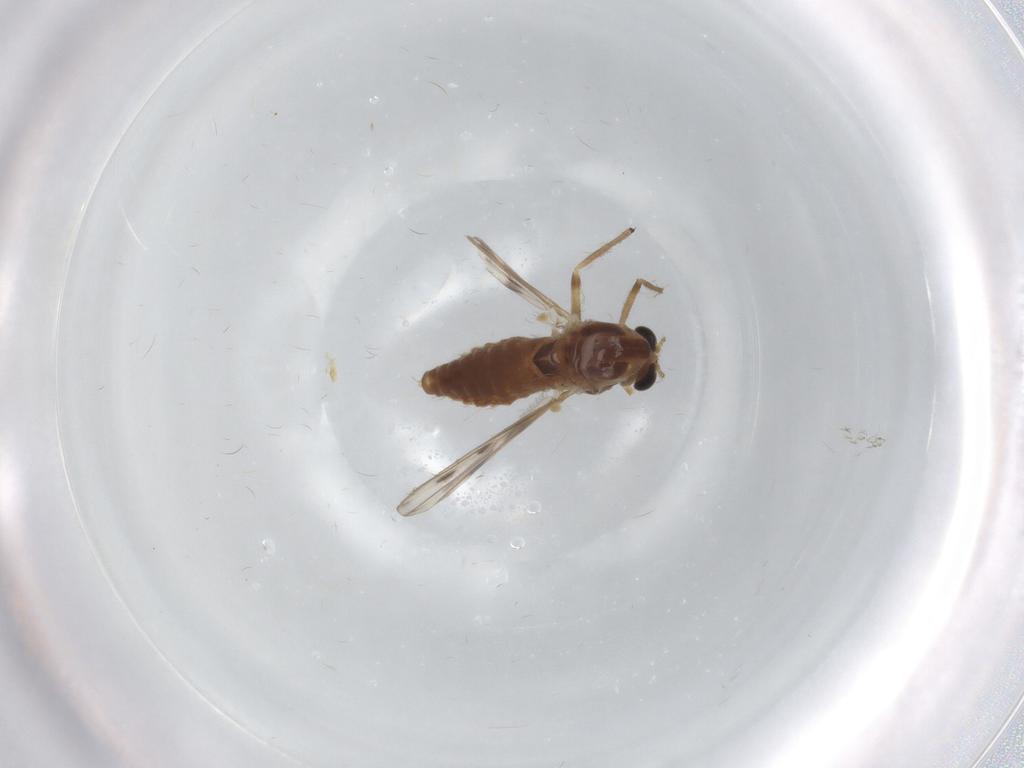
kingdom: Animalia
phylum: Arthropoda
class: Insecta
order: Diptera
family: Chironomidae
